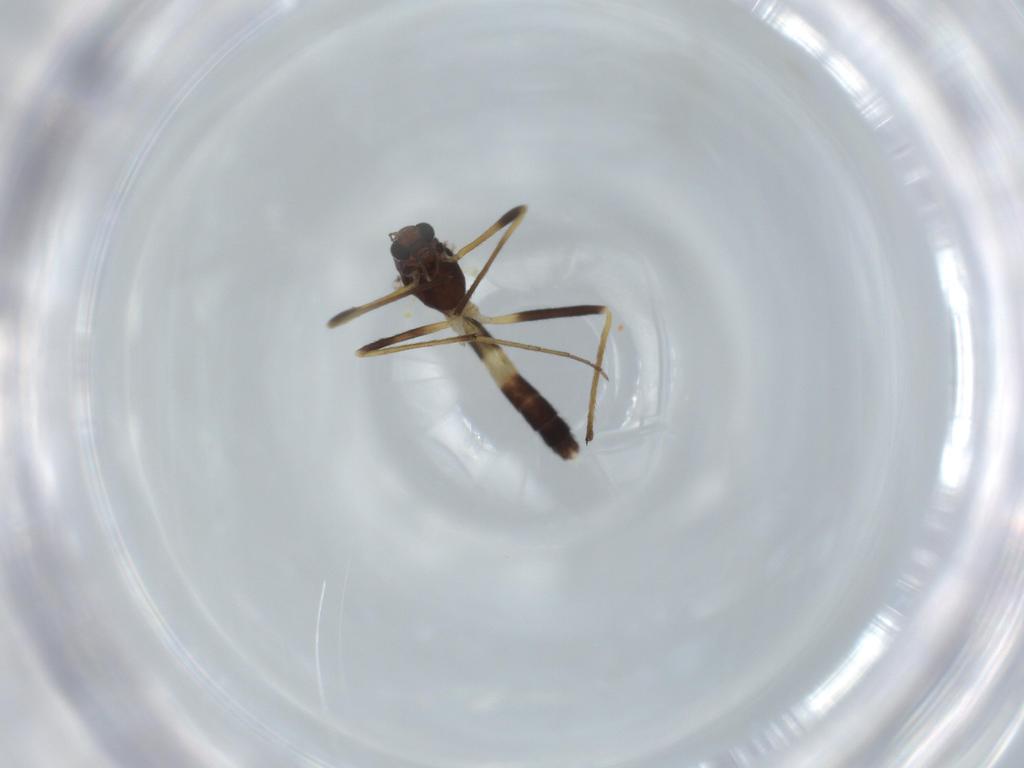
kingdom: Animalia
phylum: Arthropoda
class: Insecta
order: Diptera
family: Chironomidae
